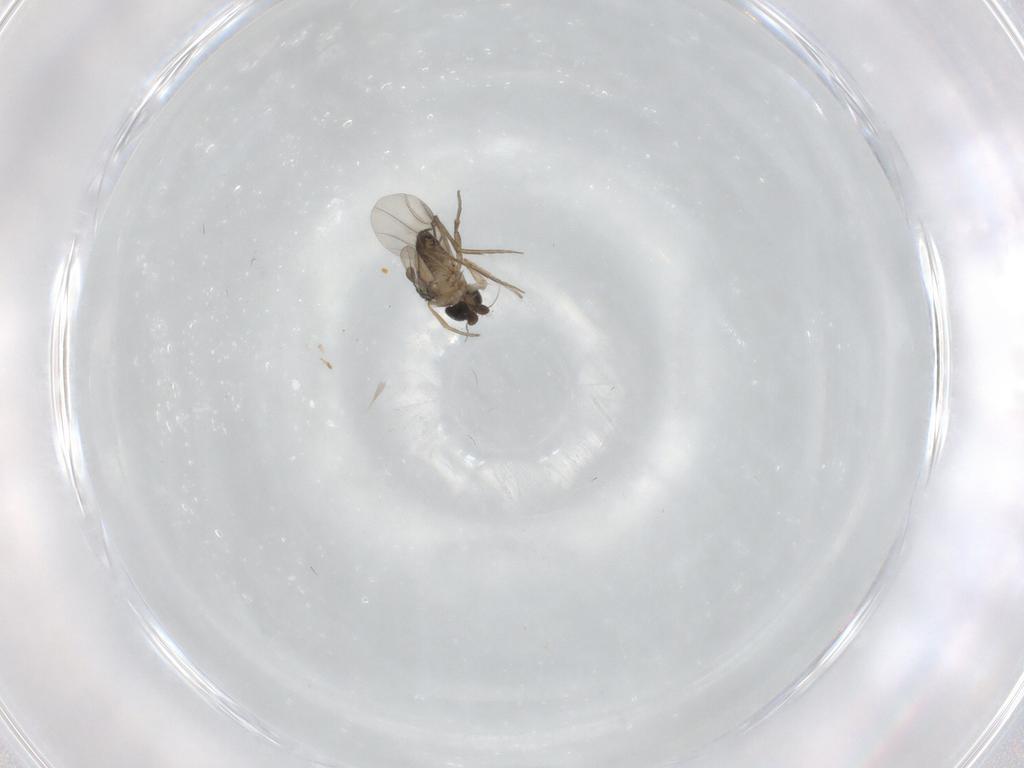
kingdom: Animalia
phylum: Arthropoda
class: Insecta
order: Diptera
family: Phoridae
